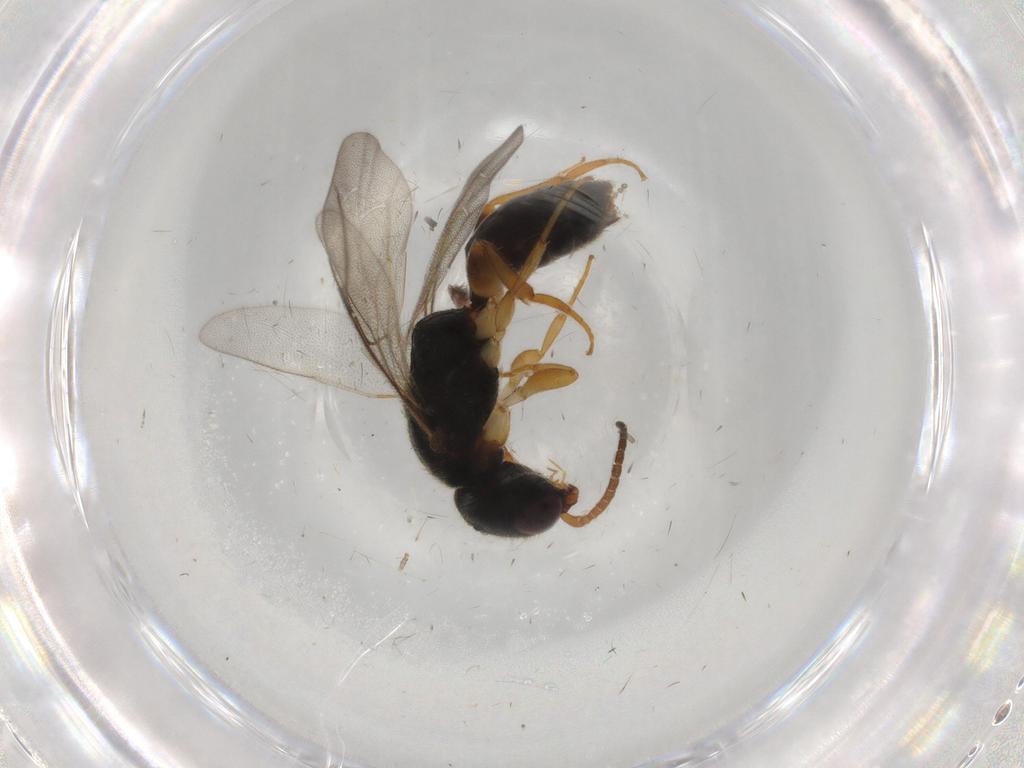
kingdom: Animalia
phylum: Arthropoda
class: Insecta
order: Hymenoptera
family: Bethylidae
